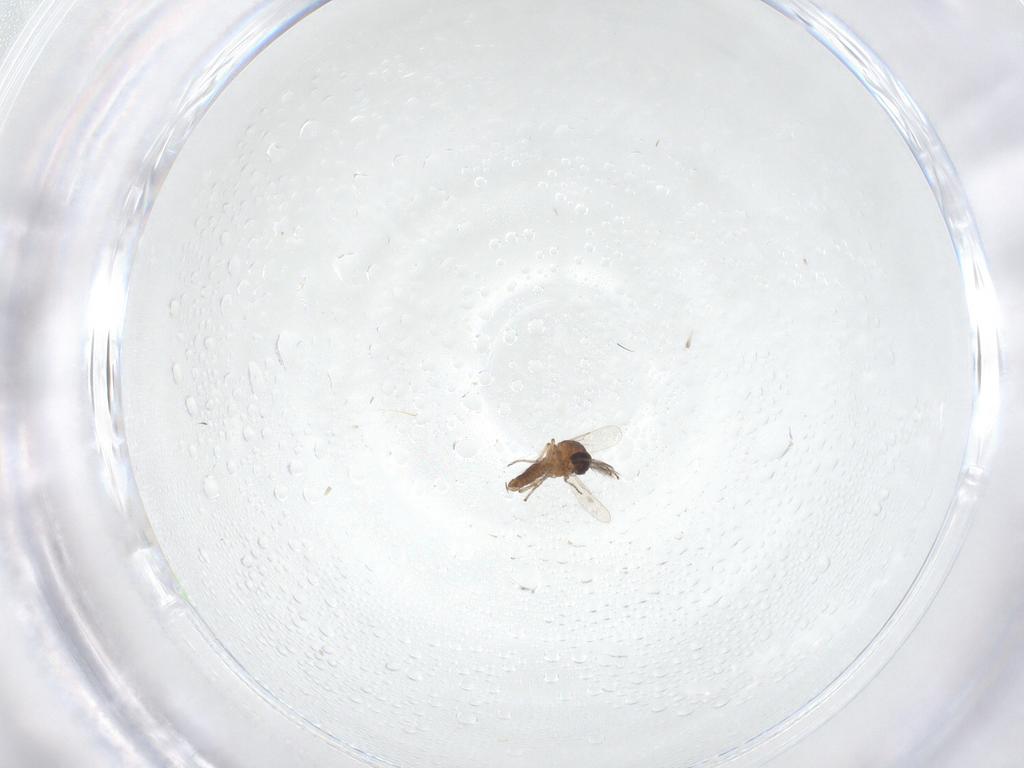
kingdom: Animalia
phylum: Arthropoda
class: Insecta
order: Diptera
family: Ceratopogonidae
